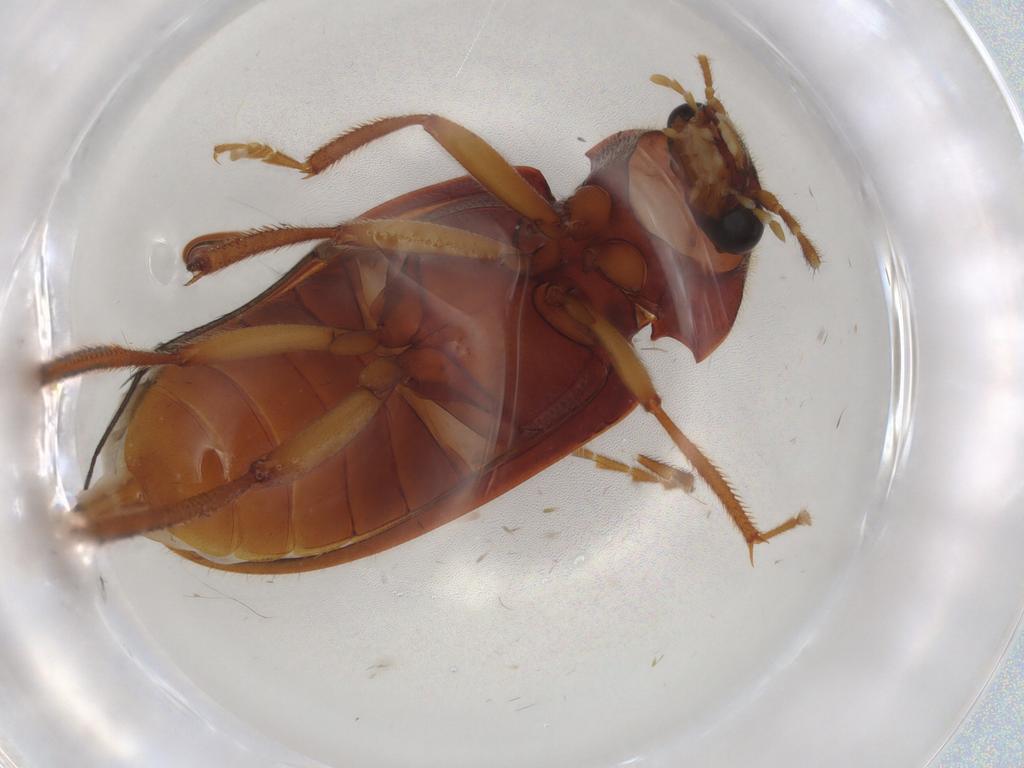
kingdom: Animalia
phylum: Arthropoda
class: Insecta
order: Coleoptera
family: Ptilodactylidae
